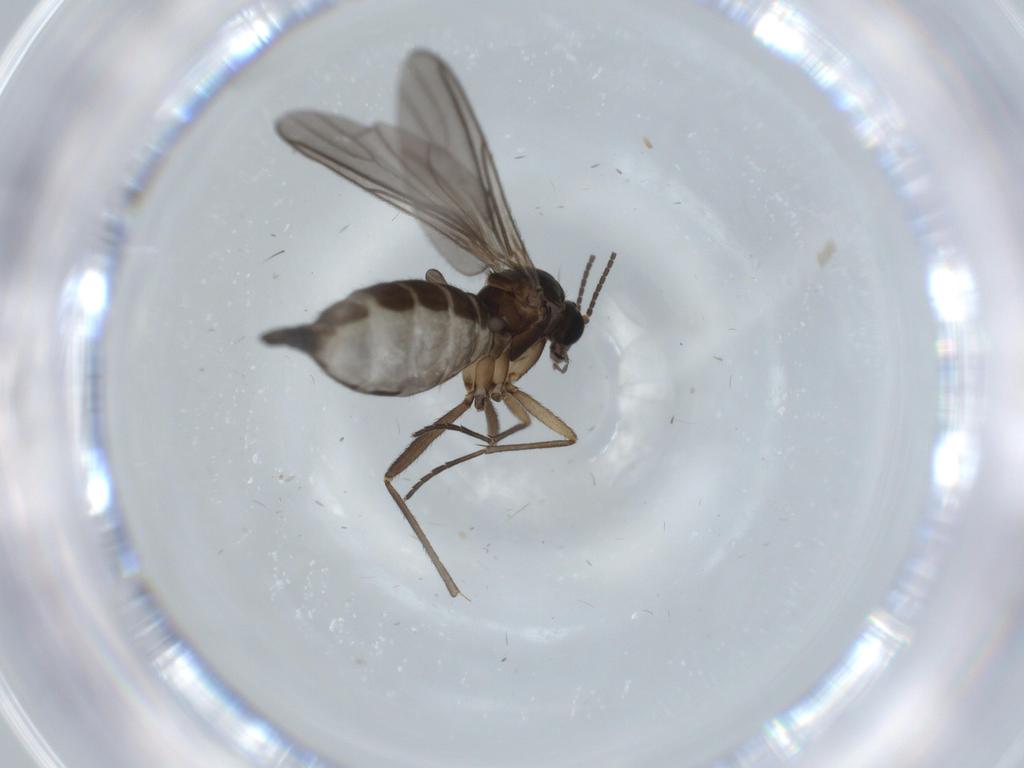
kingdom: Animalia
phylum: Arthropoda
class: Insecta
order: Diptera
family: Sciaridae
